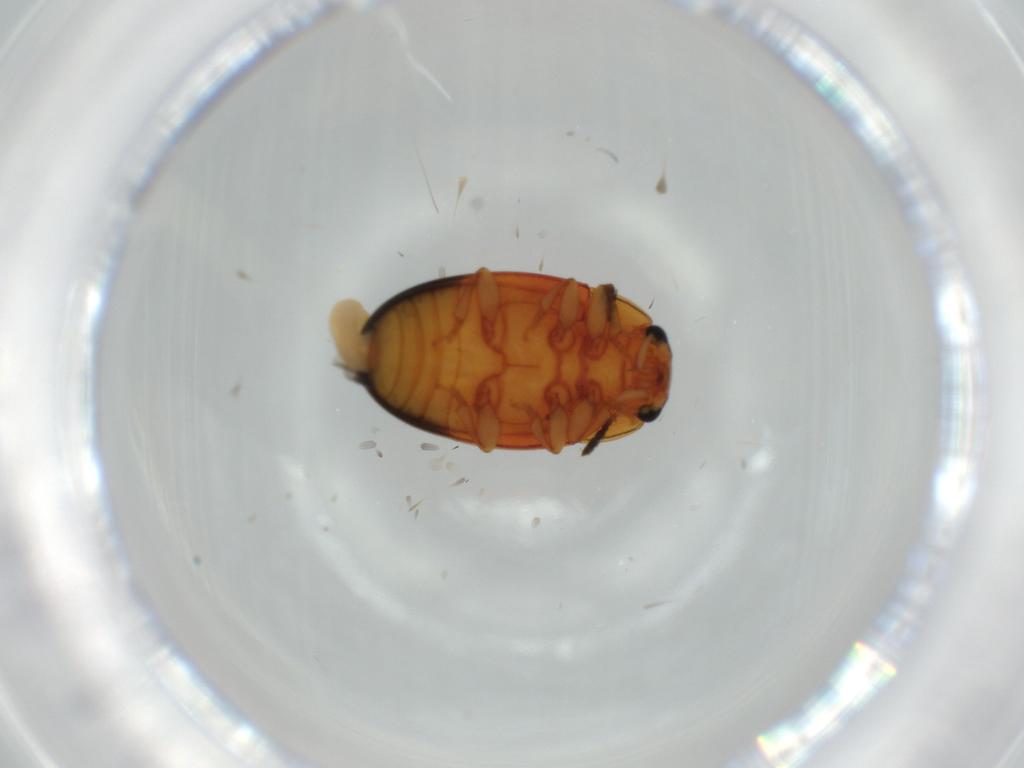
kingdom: Animalia
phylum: Arthropoda
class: Insecta
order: Coleoptera
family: Erotylidae
